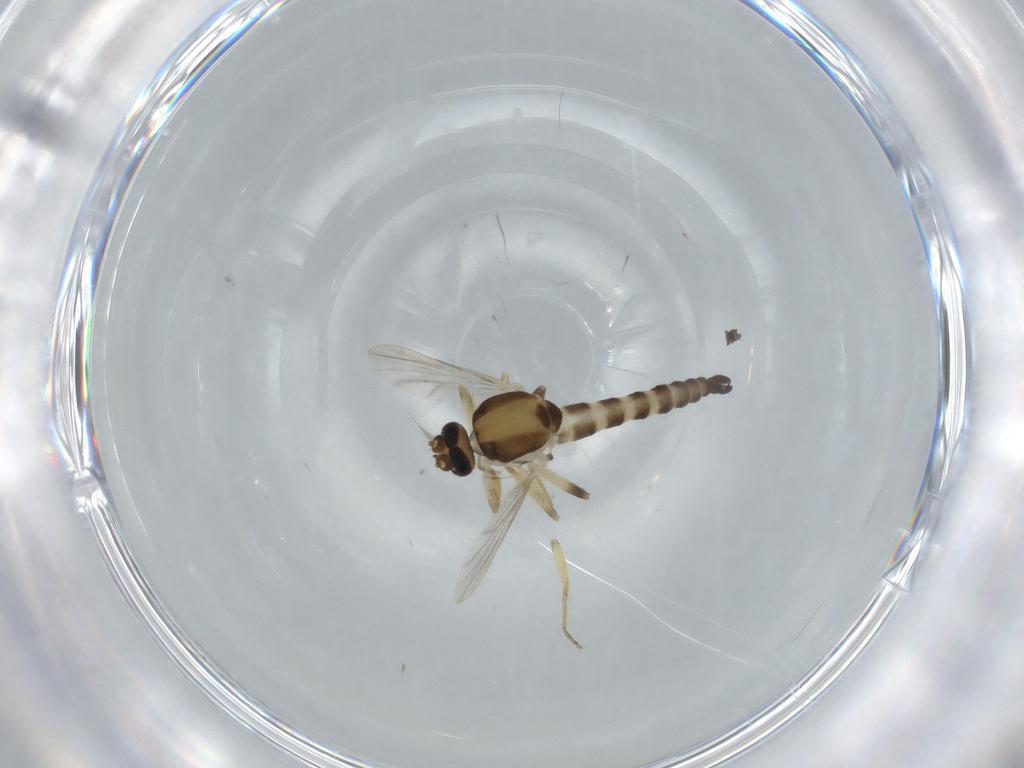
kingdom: Animalia
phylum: Arthropoda
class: Insecta
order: Diptera
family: Ceratopogonidae
